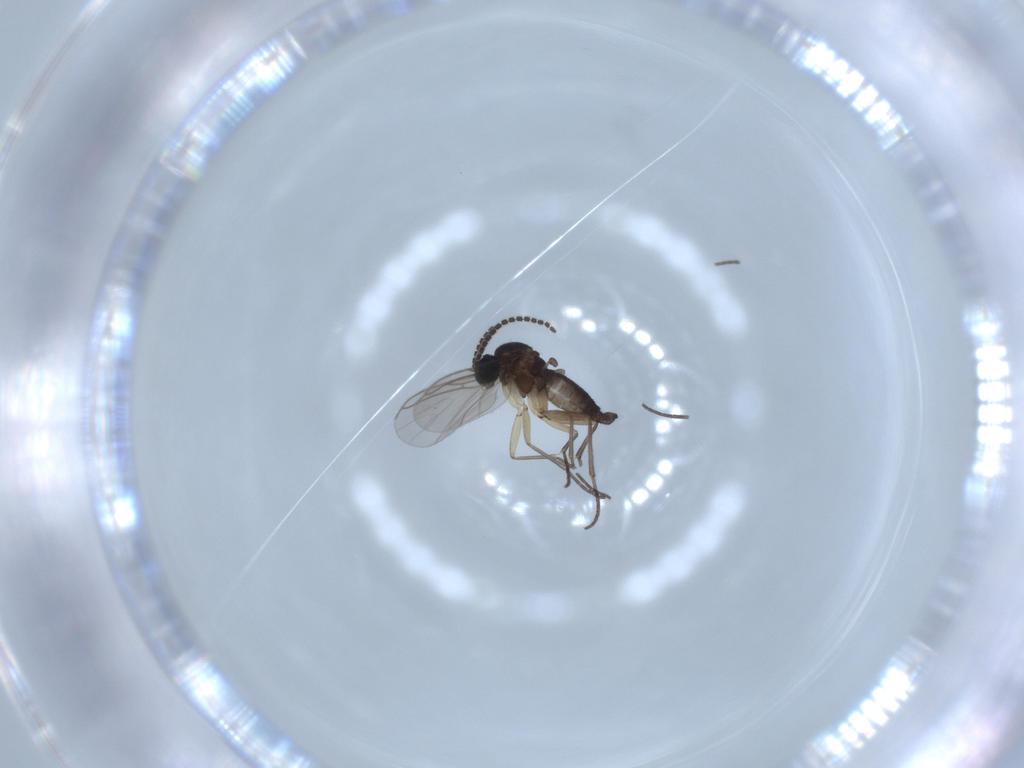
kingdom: Animalia
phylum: Arthropoda
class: Insecta
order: Diptera
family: Sciaridae
